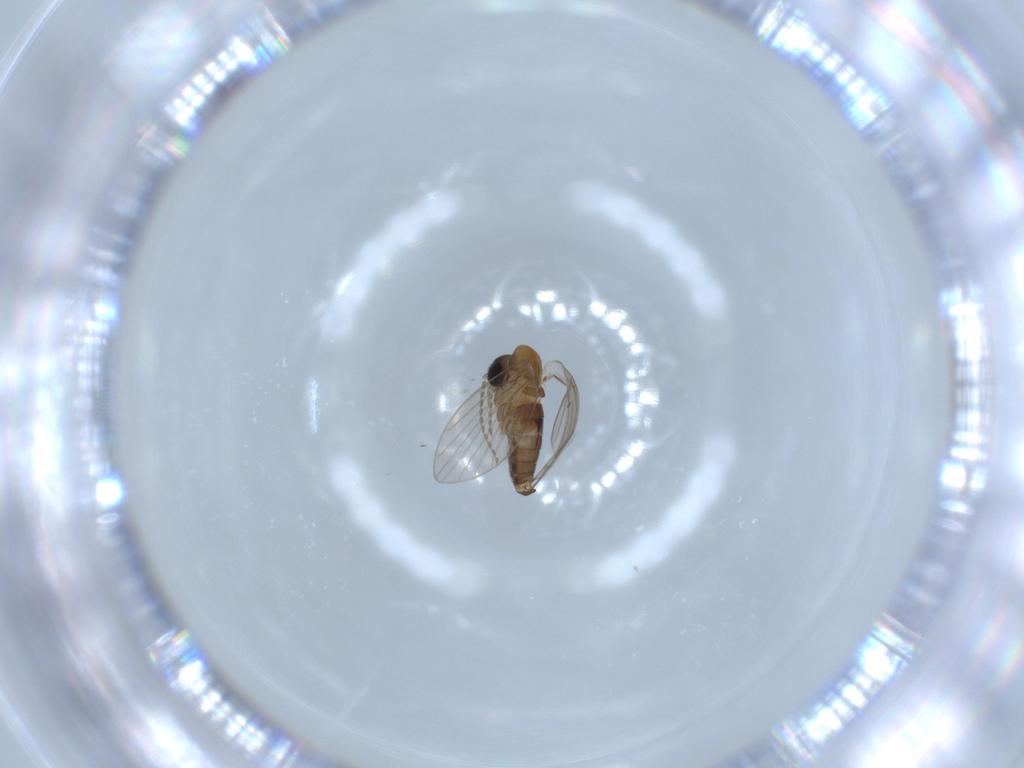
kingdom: Animalia
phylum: Arthropoda
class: Insecta
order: Diptera
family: Psychodidae
